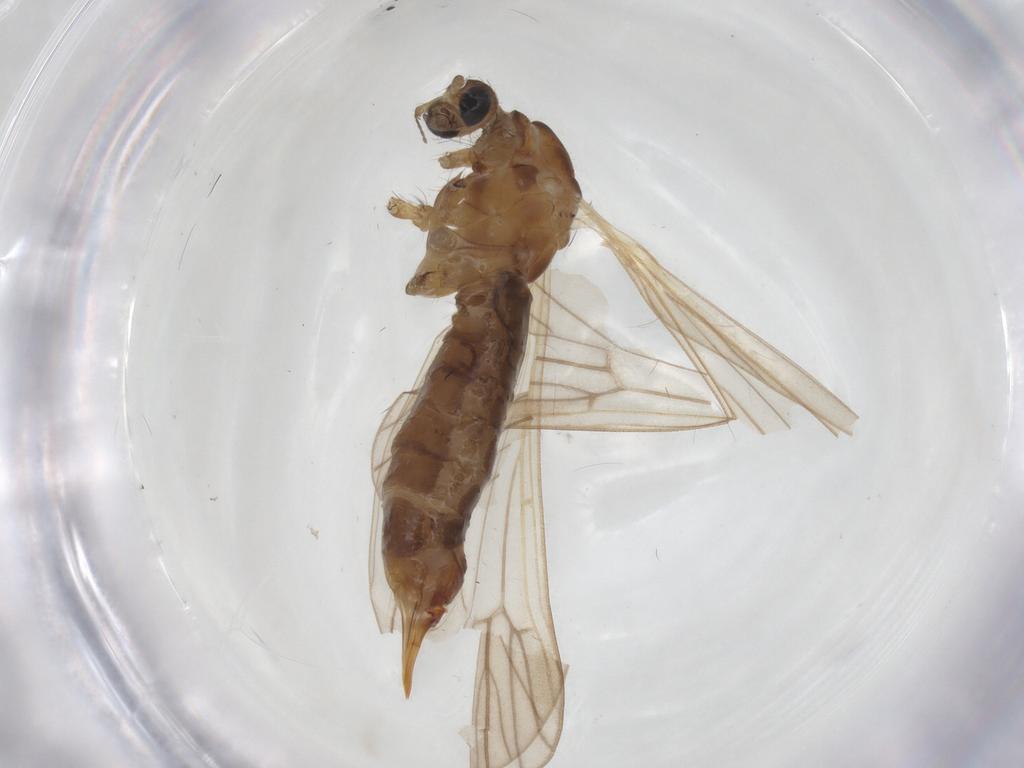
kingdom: Animalia
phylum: Arthropoda
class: Insecta
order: Diptera
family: Limoniidae
